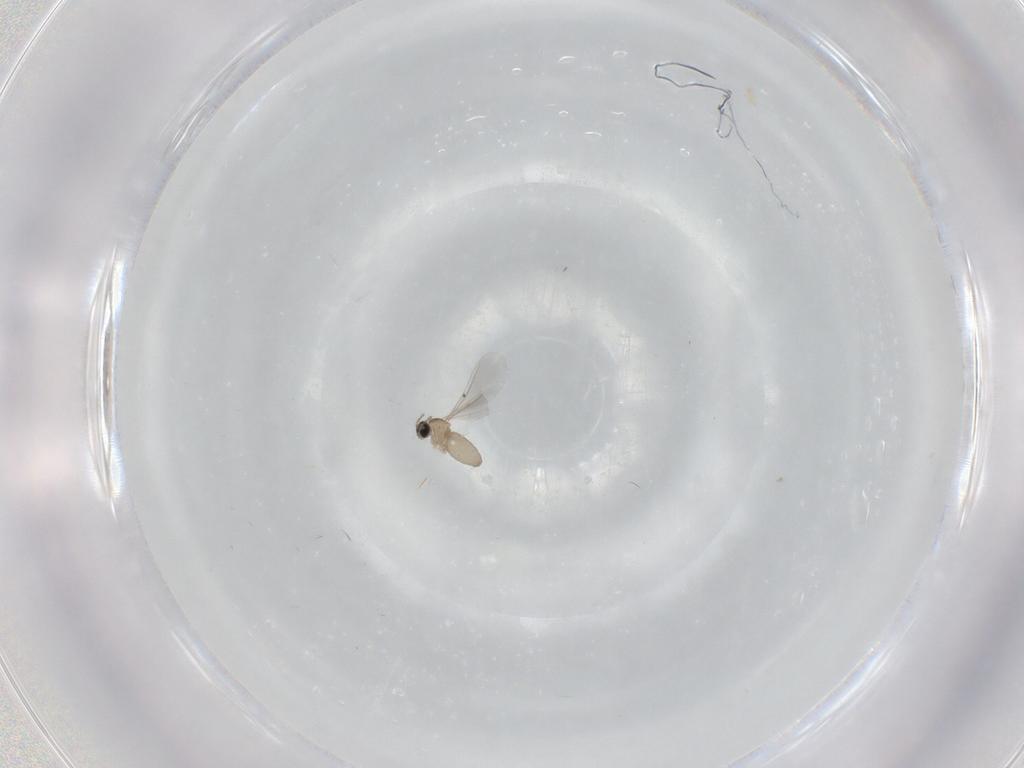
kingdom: Animalia
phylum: Arthropoda
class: Insecta
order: Diptera
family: Cecidomyiidae
